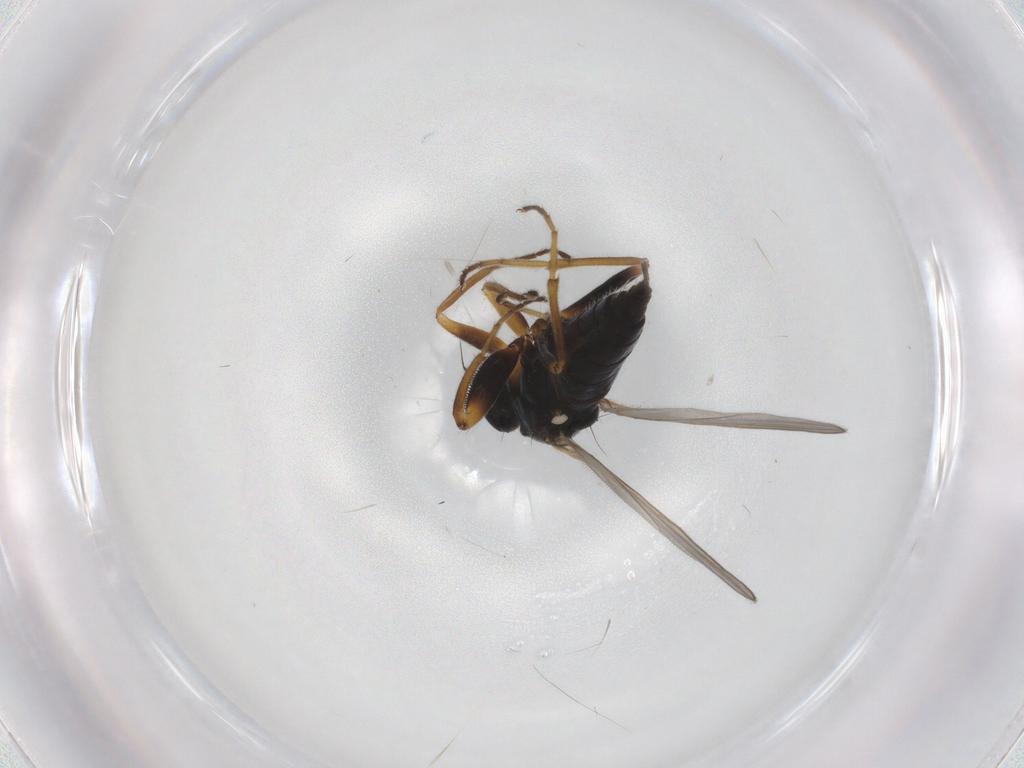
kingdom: Animalia
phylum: Arthropoda
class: Insecta
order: Diptera
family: Chironomidae
